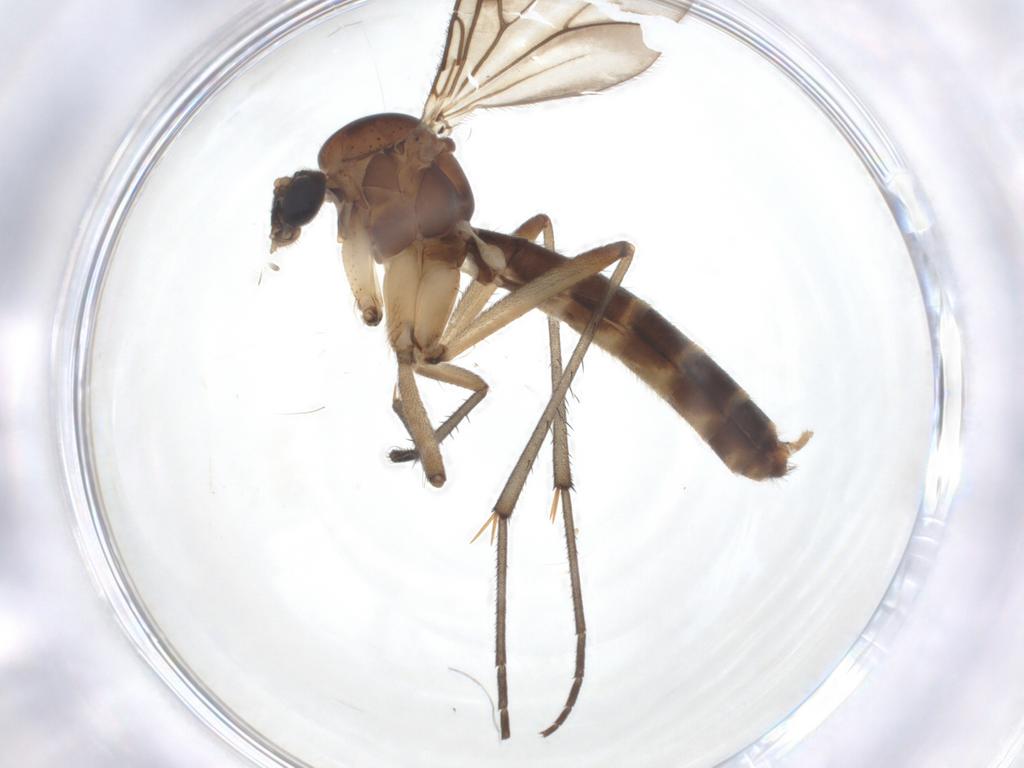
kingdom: Animalia
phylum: Arthropoda
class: Insecta
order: Diptera
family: Mycetophilidae
